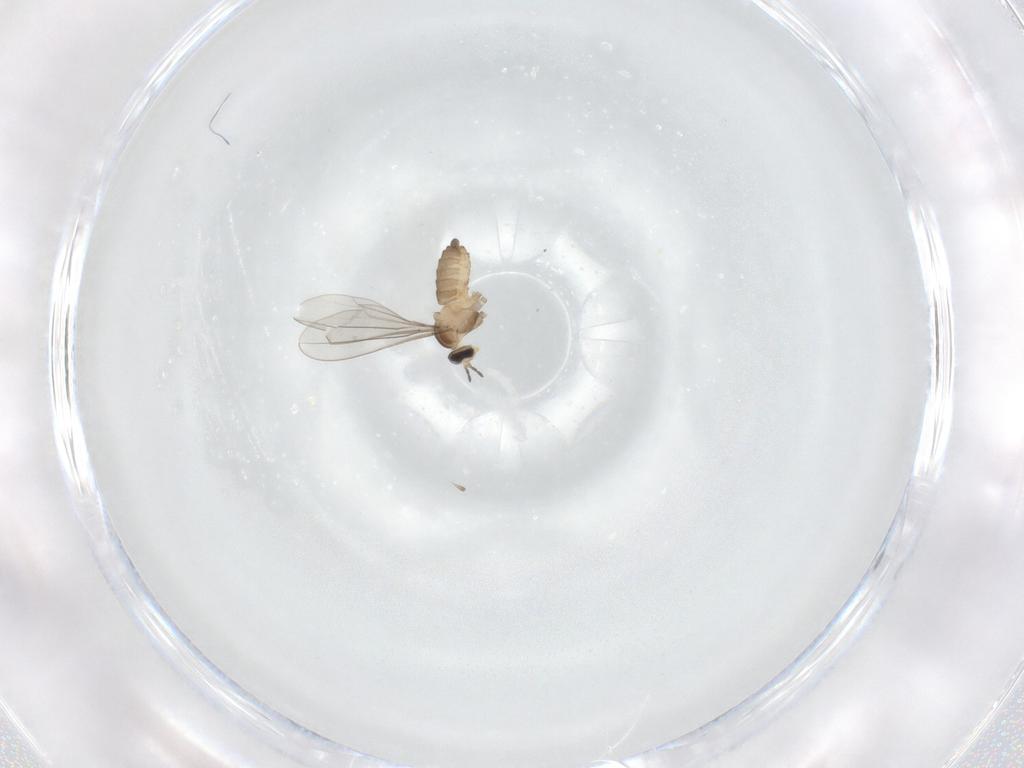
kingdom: Animalia
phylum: Arthropoda
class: Insecta
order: Diptera
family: Cecidomyiidae
